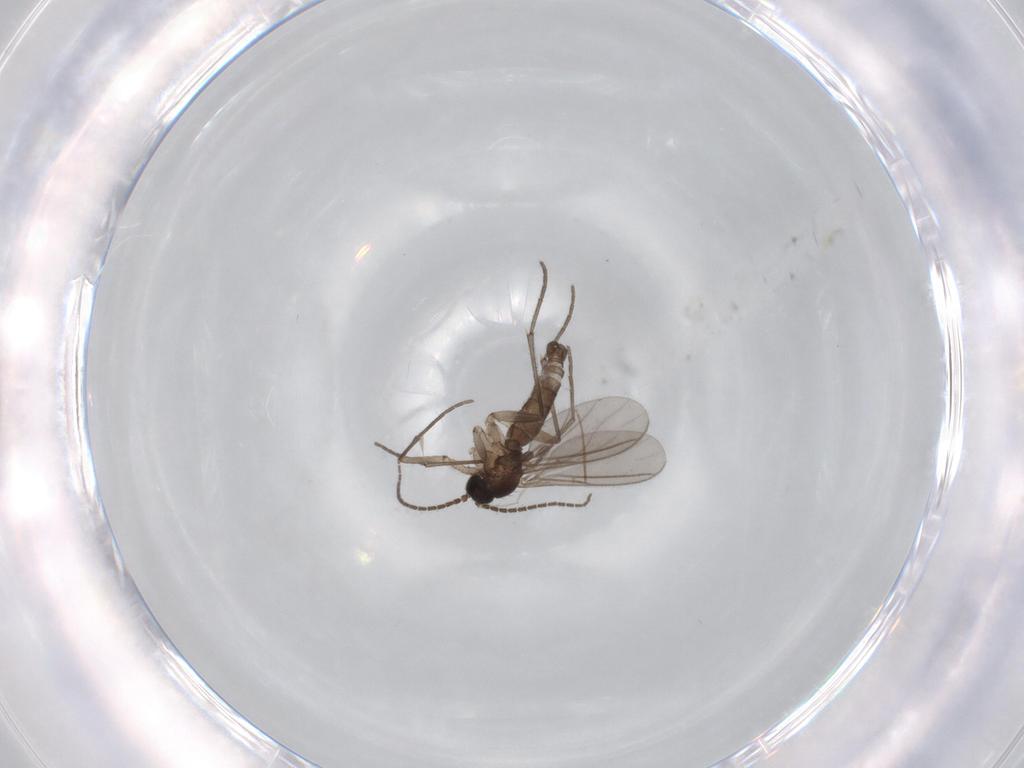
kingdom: Animalia
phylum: Arthropoda
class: Insecta
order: Diptera
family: Sciaridae
